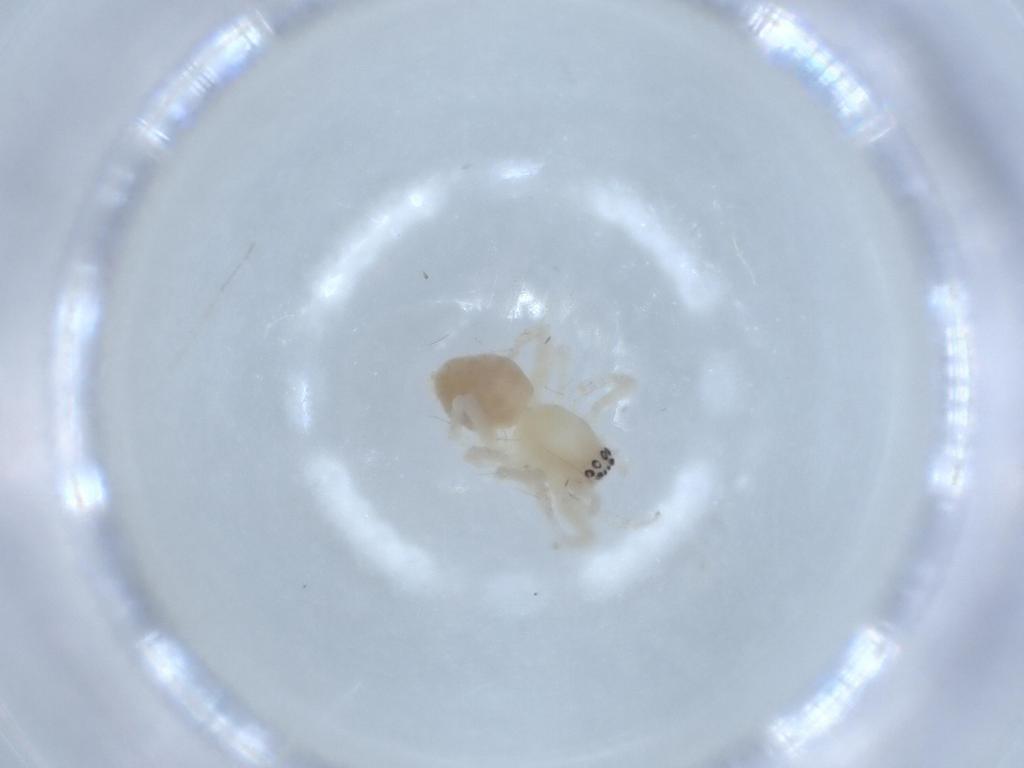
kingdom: Animalia
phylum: Arthropoda
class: Arachnida
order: Araneae
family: Anyphaenidae
